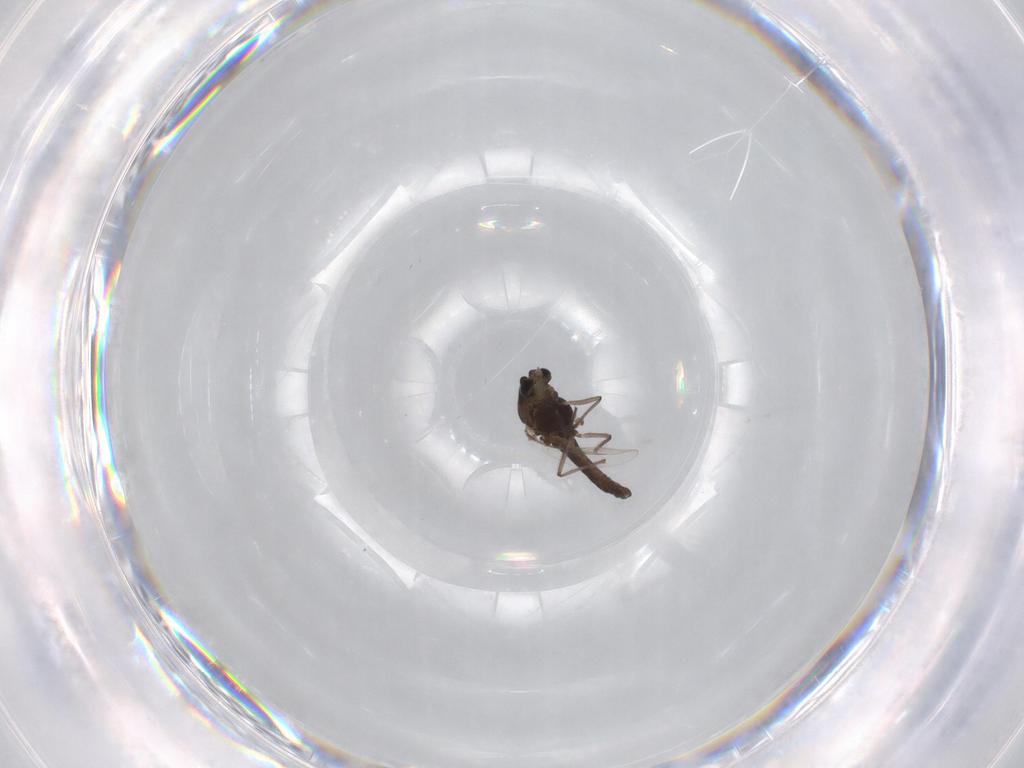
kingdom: Animalia
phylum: Arthropoda
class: Insecta
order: Diptera
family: Chironomidae
